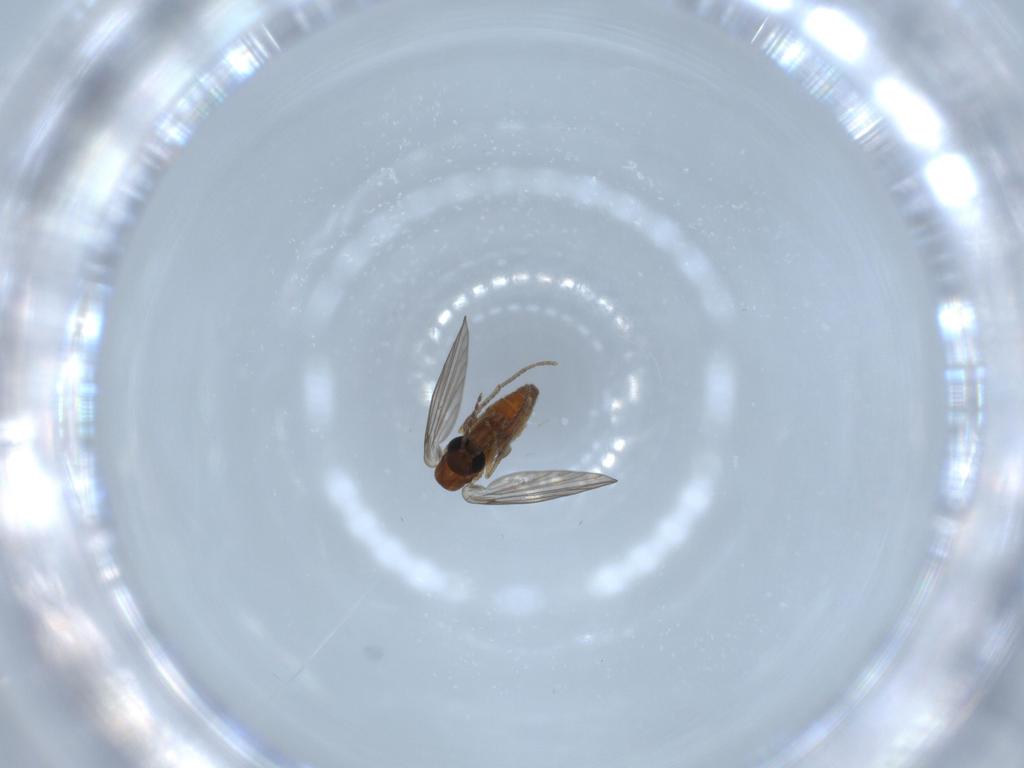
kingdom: Animalia
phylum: Arthropoda
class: Insecta
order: Diptera
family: Psychodidae
